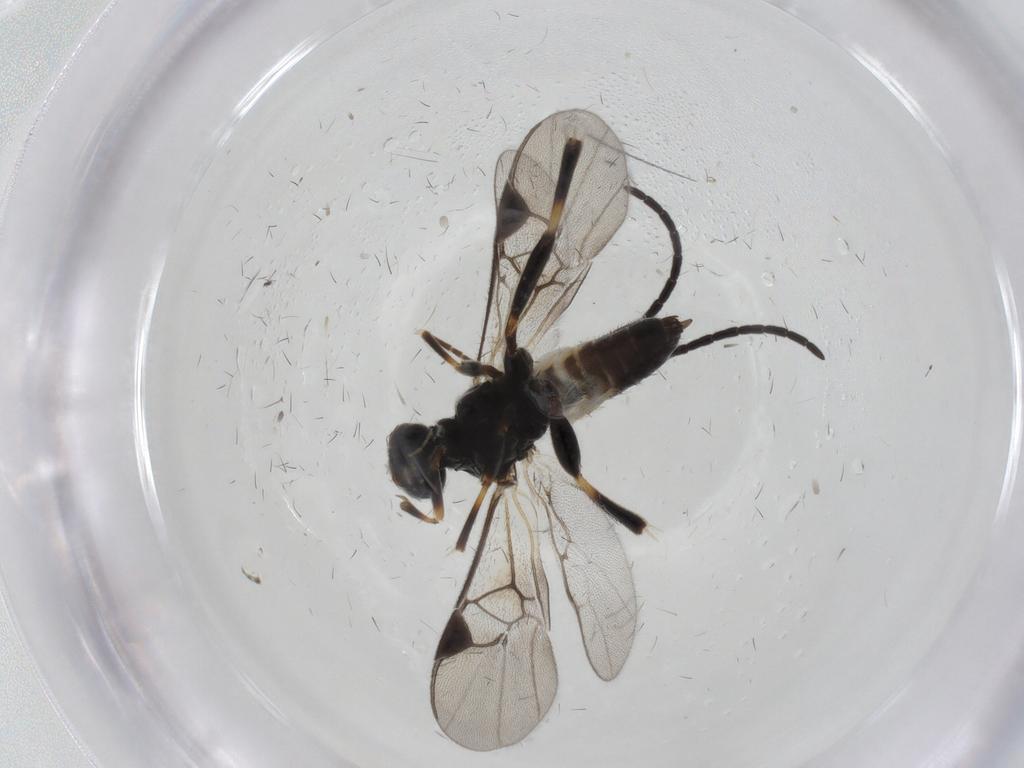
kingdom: Animalia
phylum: Arthropoda
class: Insecta
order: Hymenoptera
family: Braconidae
